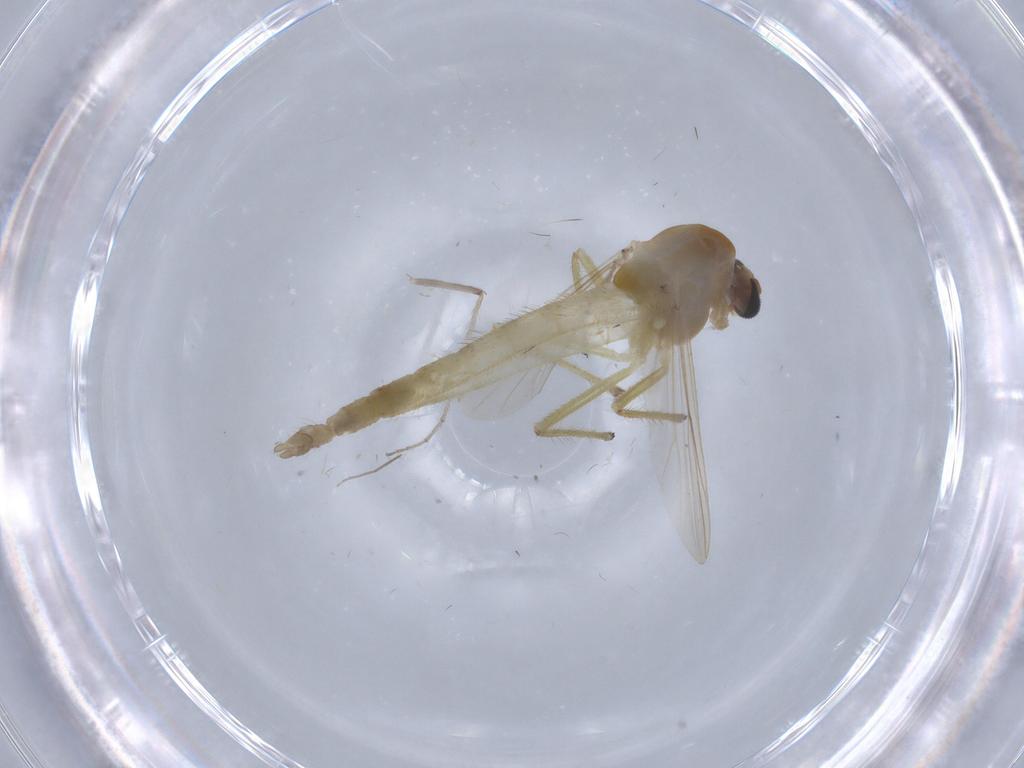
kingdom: Animalia
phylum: Arthropoda
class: Insecta
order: Diptera
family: Chironomidae
